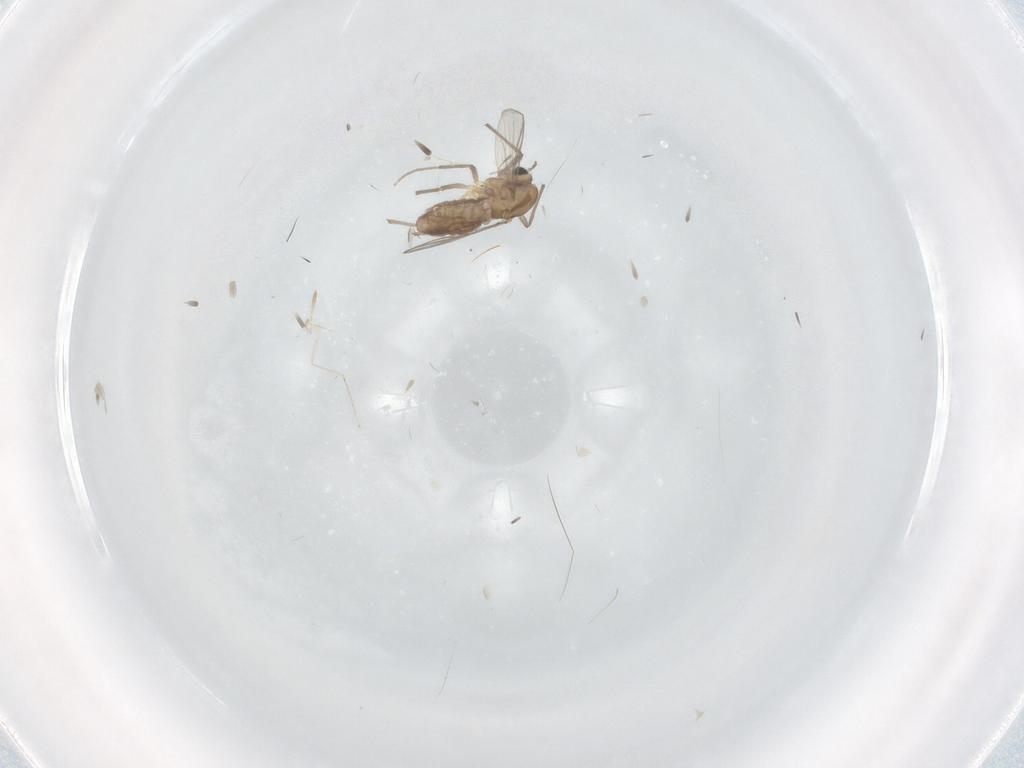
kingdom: Animalia
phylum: Arthropoda
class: Insecta
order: Diptera
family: Chironomidae
